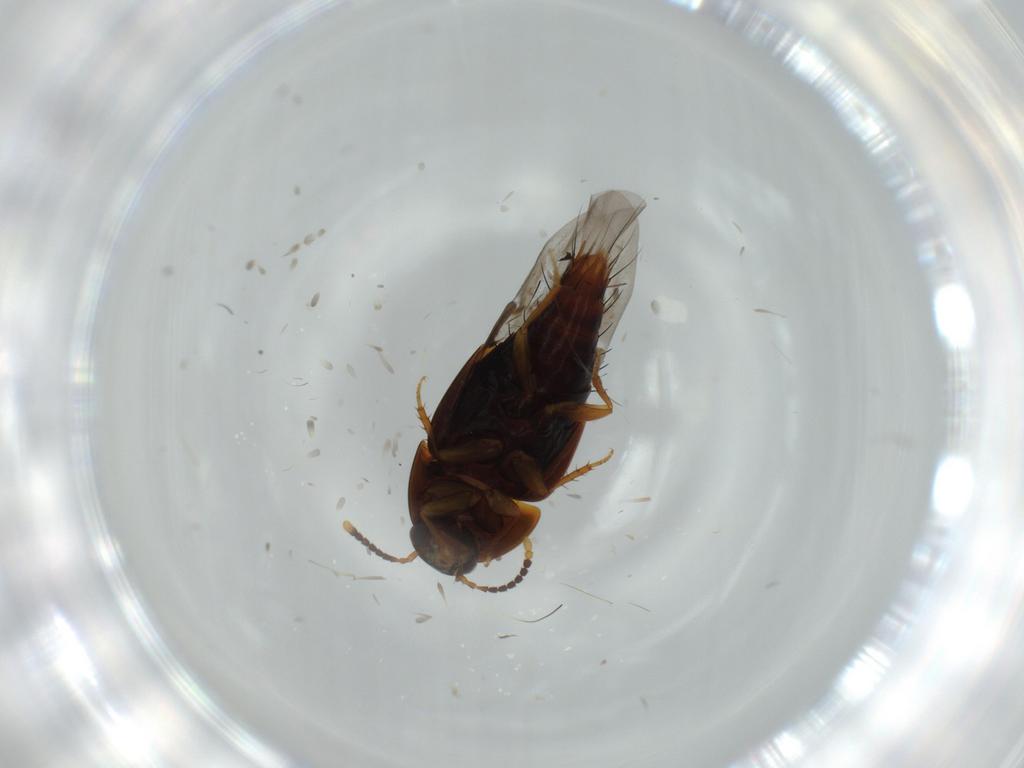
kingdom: Animalia
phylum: Arthropoda
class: Insecta
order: Coleoptera
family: Staphylinidae
